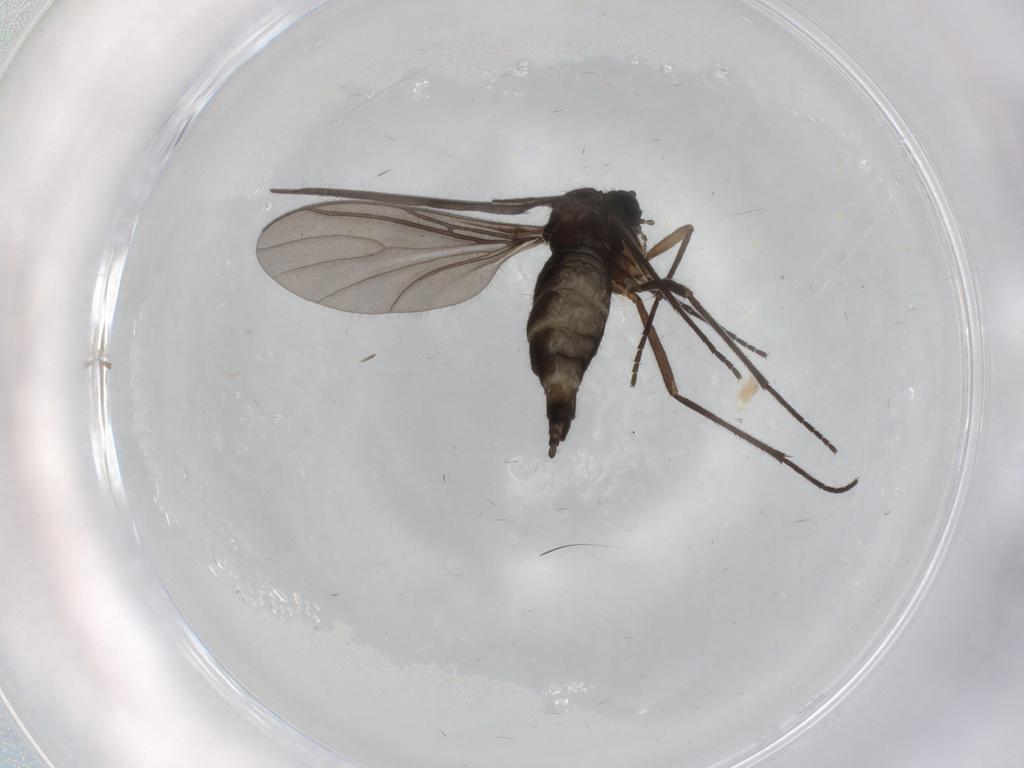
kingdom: Animalia
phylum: Arthropoda
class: Insecta
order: Diptera
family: Sciaridae
